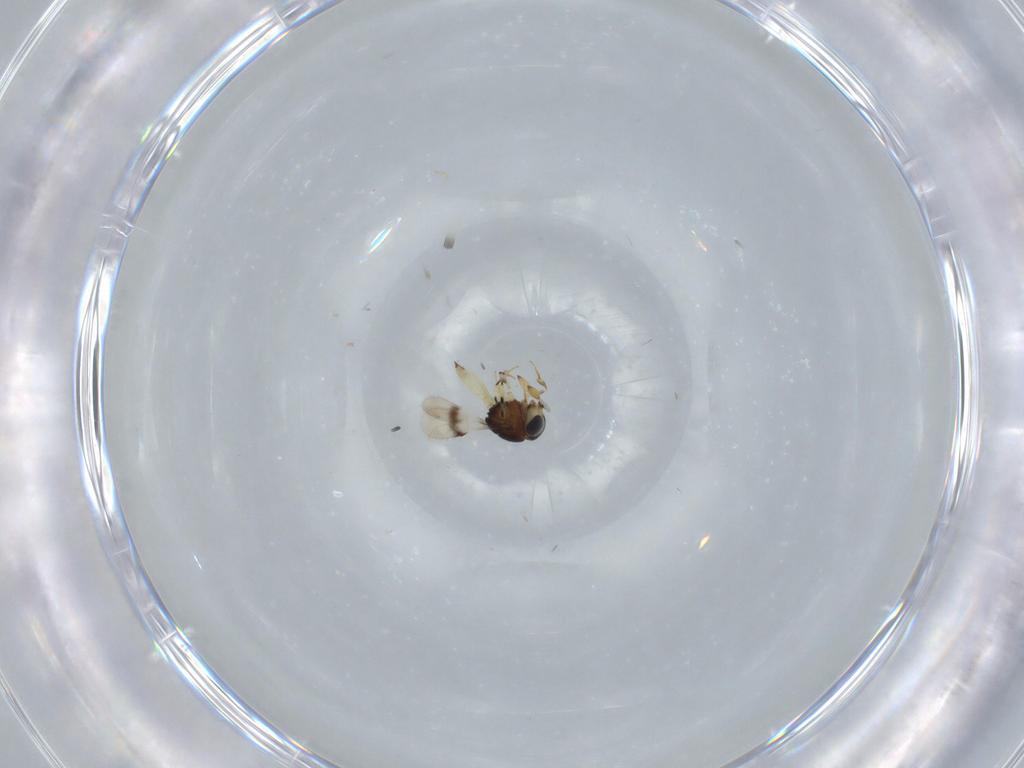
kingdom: Animalia
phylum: Arthropoda
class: Insecta
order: Hymenoptera
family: Scelionidae
